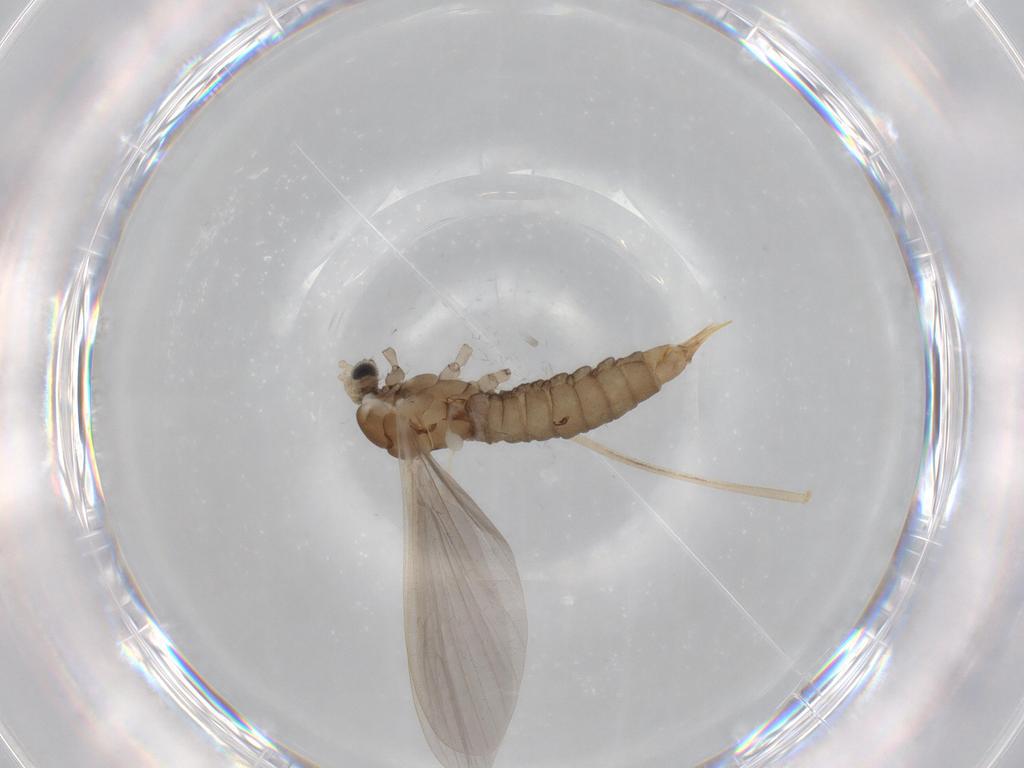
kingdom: Animalia
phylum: Arthropoda
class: Insecta
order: Diptera
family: Limoniidae
